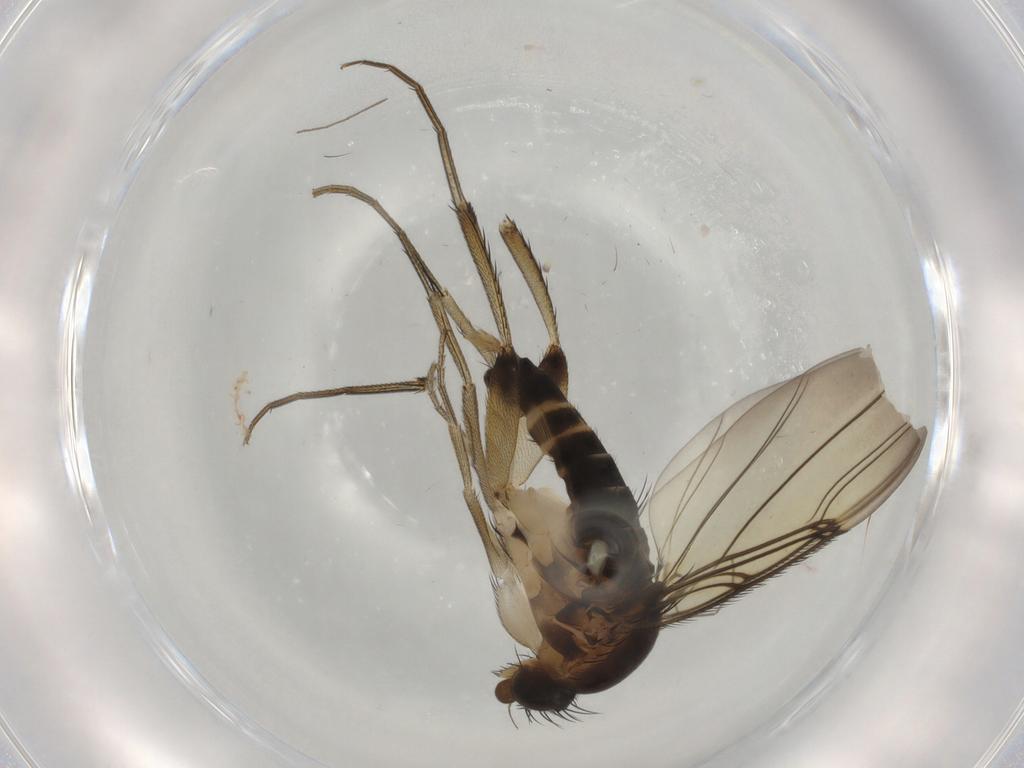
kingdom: Animalia
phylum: Arthropoda
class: Insecta
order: Diptera
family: Phoridae
